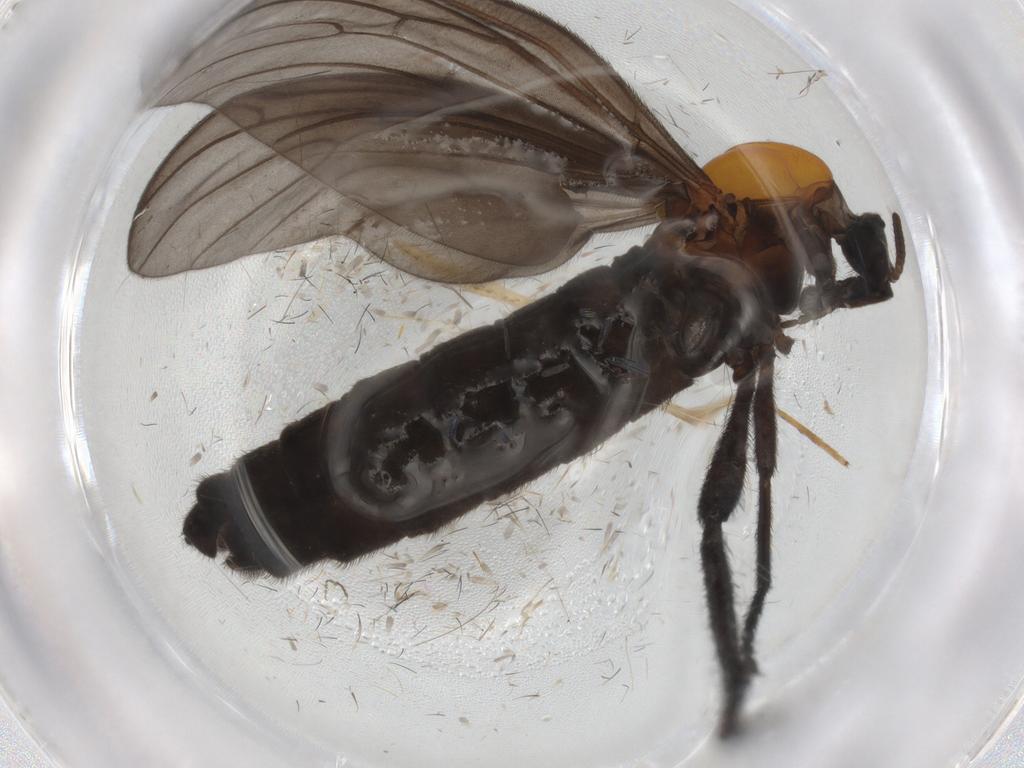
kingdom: Animalia
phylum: Arthropoda
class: Insecta
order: Diptera
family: Bibionidae
